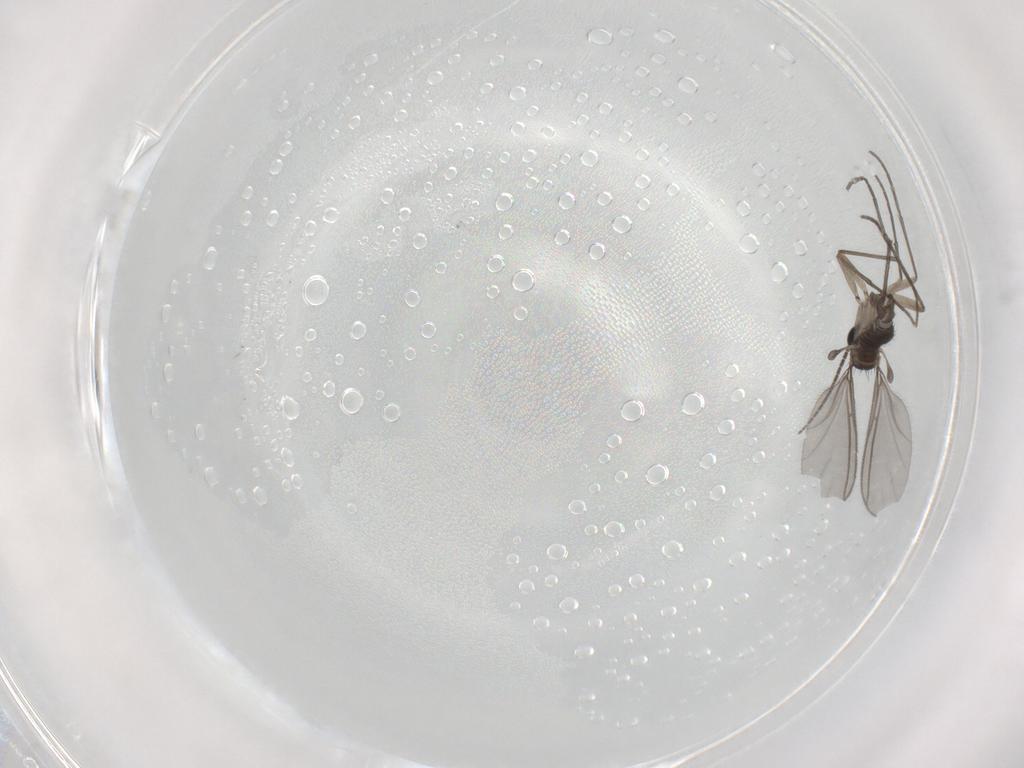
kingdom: Animalia
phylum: Arthropoda
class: Insecta
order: Diptera
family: Sciaridae
